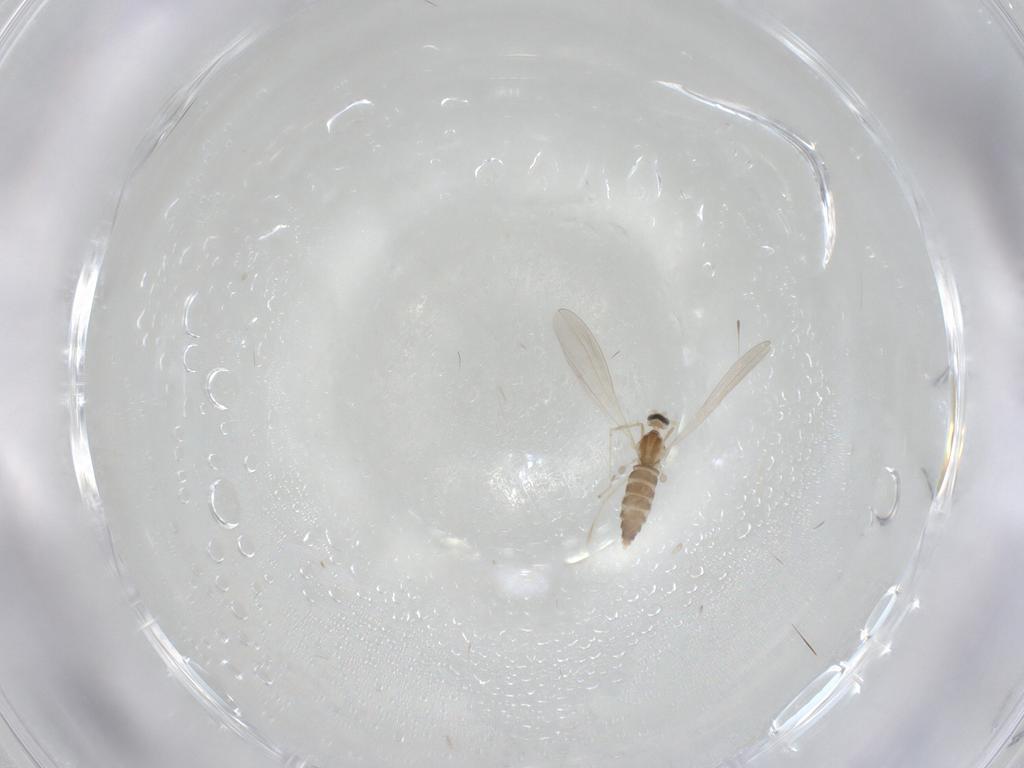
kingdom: Animalia
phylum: Arthropoda
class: Insecta
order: Diptera
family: Cecidomyiidae
